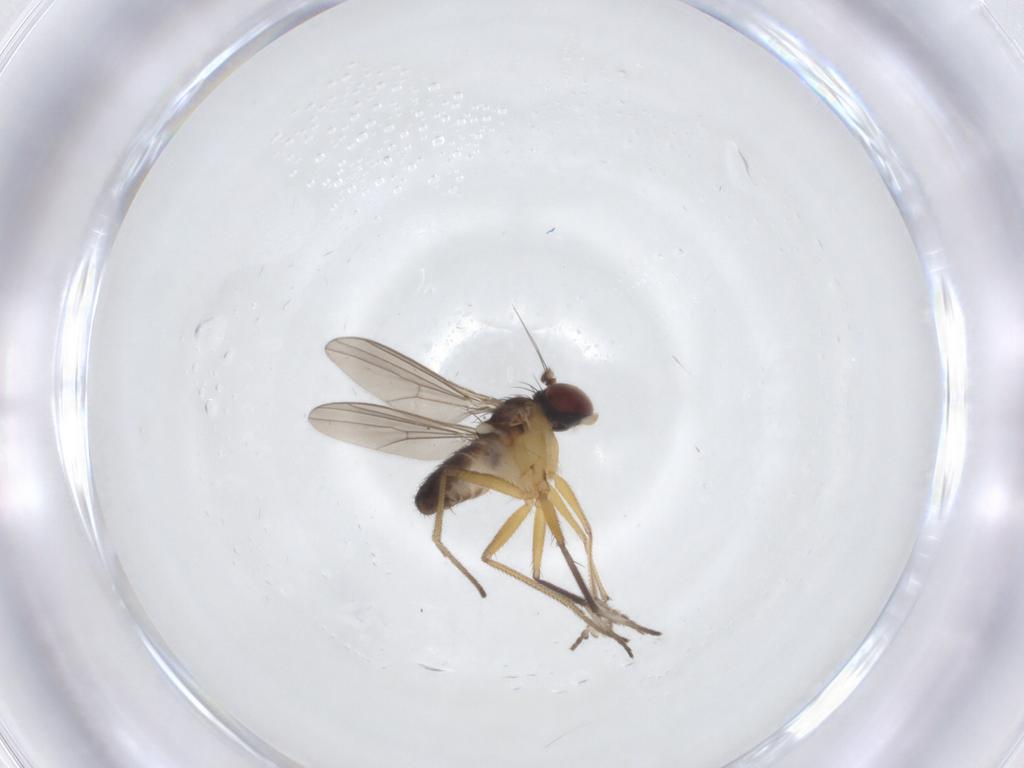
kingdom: Animalia
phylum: Arthropoda
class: Insecta
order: Diptera
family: Dolichopodidae
